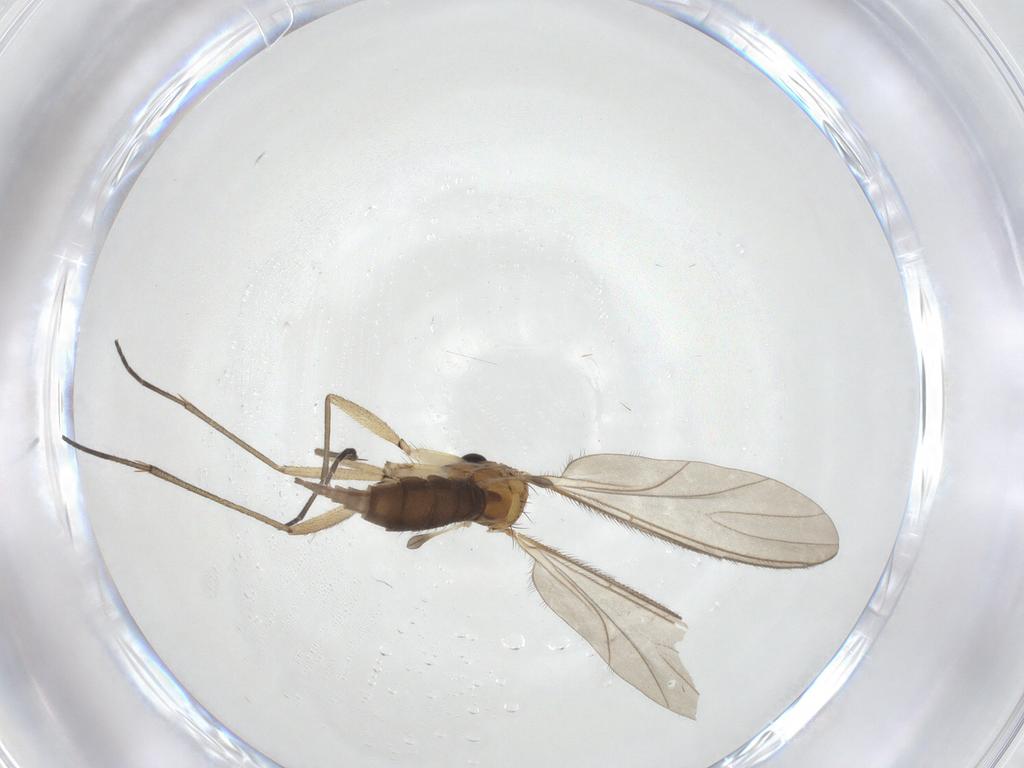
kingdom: Animalia
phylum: Arthropoda
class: Insecta
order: Diptera
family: Sciaridae
